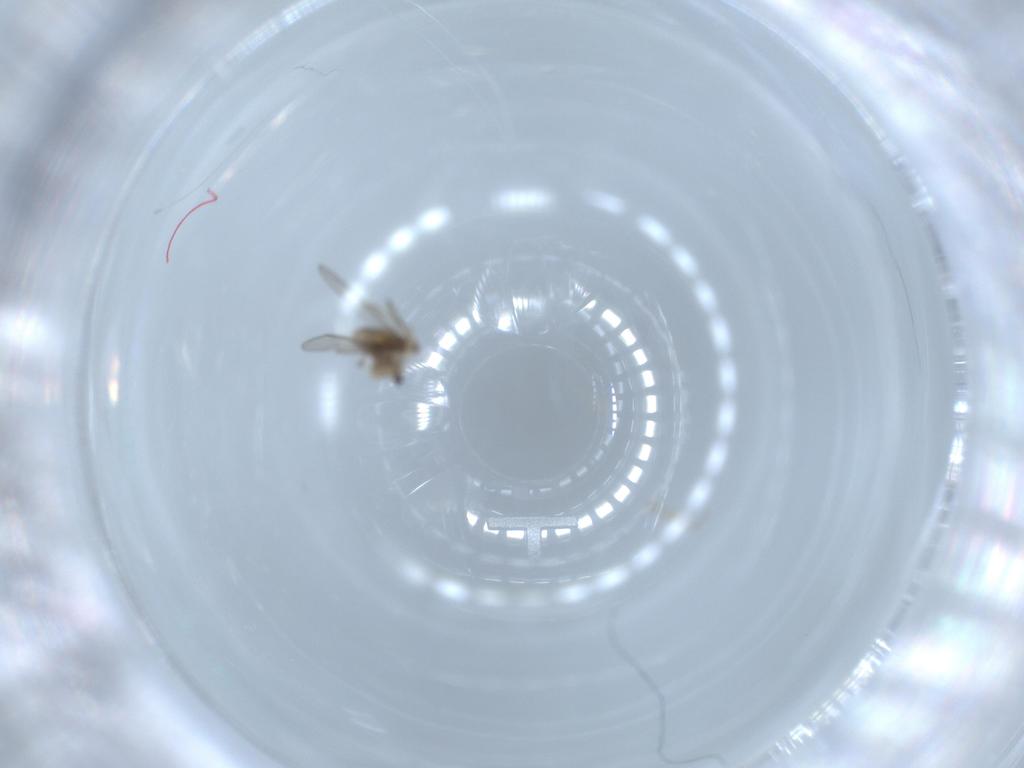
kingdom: Animalia
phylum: Arthropoda
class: Insecta
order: Diptera
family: Chironomidae
